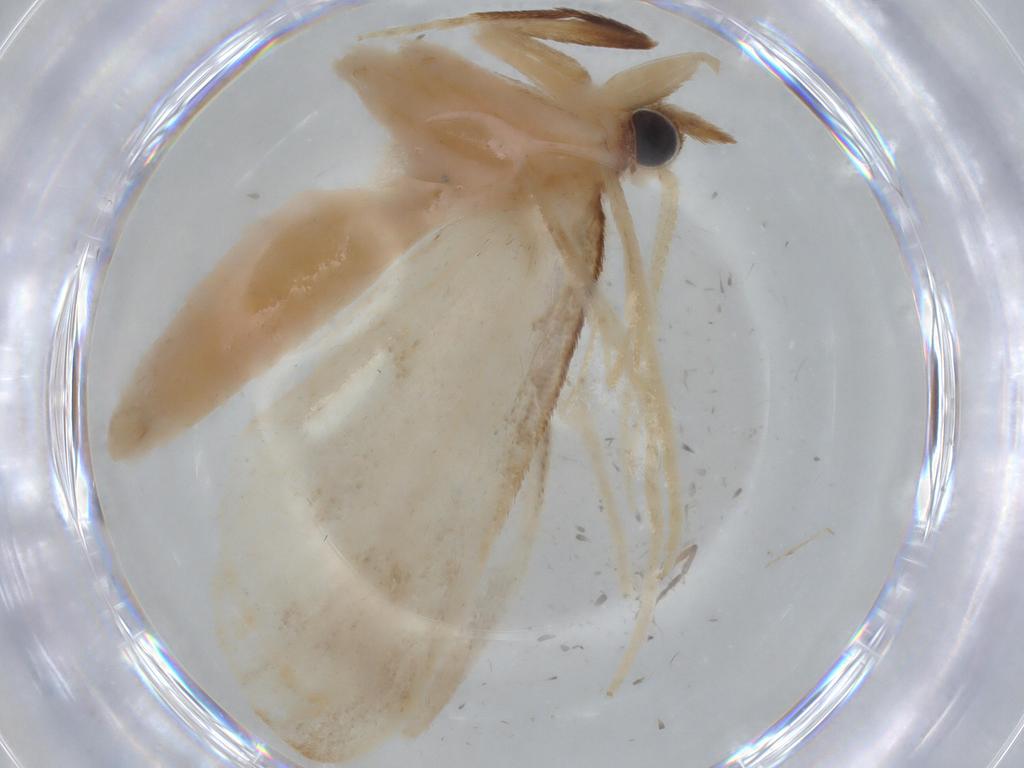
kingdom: Animalia
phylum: Arthropoda
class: Insecta
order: Lepidoptera
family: Crambidae
